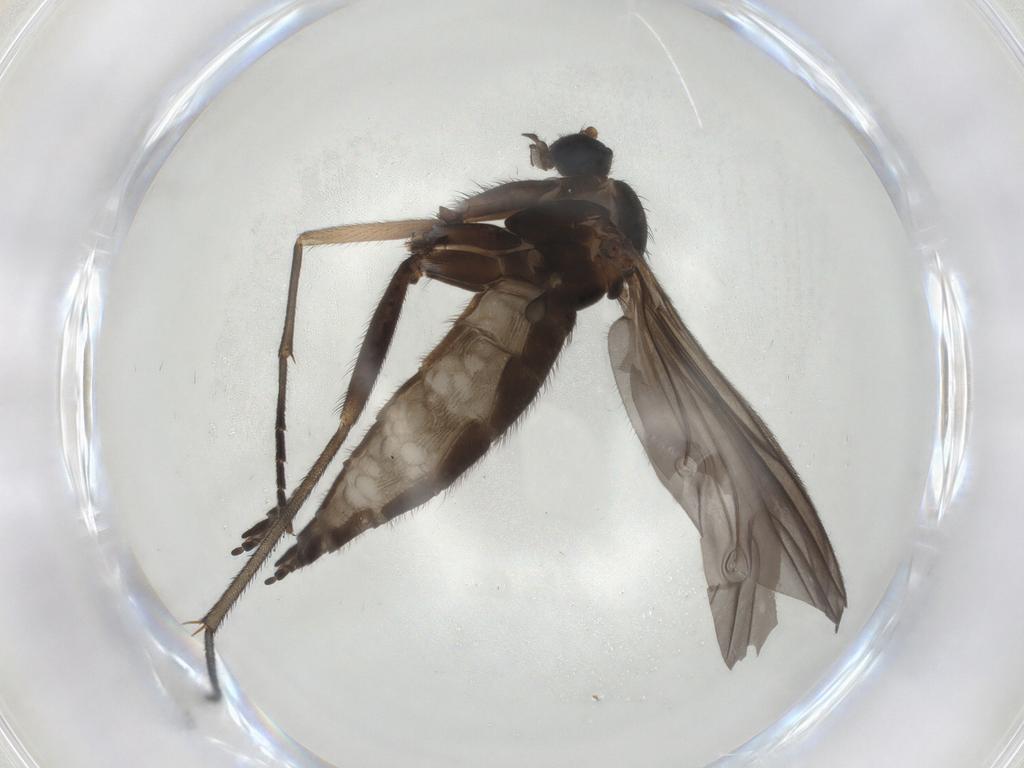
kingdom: Animalia
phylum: Arthropoda
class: Insecta
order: Diptera
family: Sciaridae
